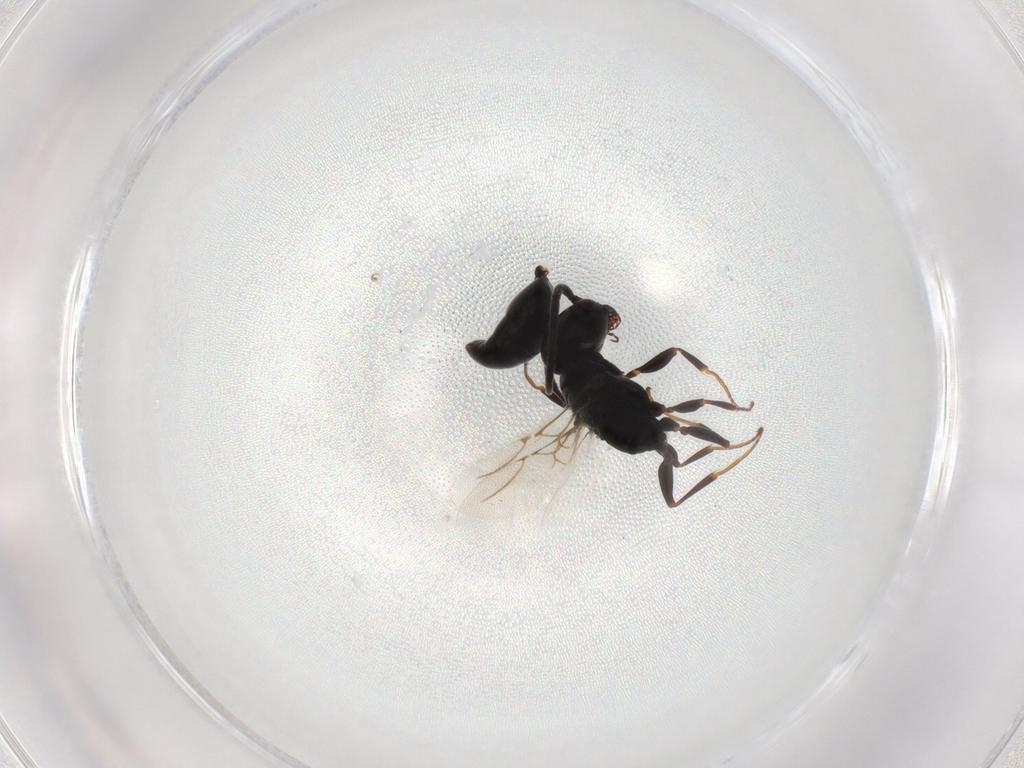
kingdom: Animalia
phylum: Arthropoda
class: Insecta
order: Hymenoptera
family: Bethylidae
